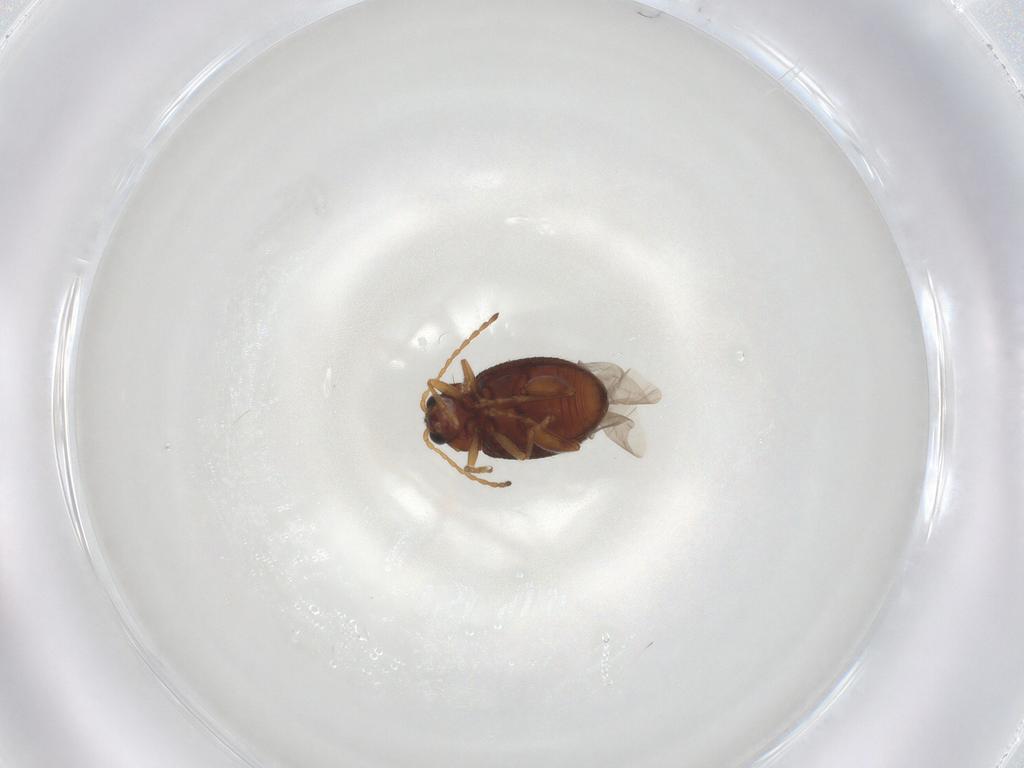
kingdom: Animalia
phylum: Arthropoda
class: Insecta
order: Coleoptera
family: Chrysomelidae
